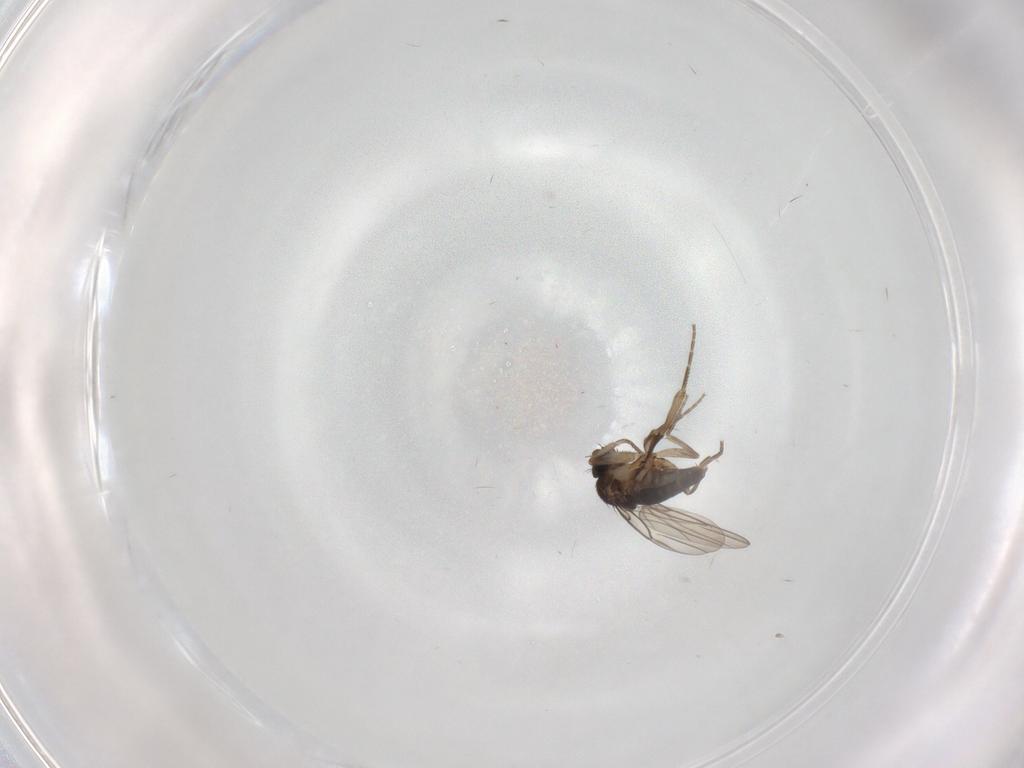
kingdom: Animalia
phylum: Arthropoda
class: Insecta
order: Diptera
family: Phoridae
